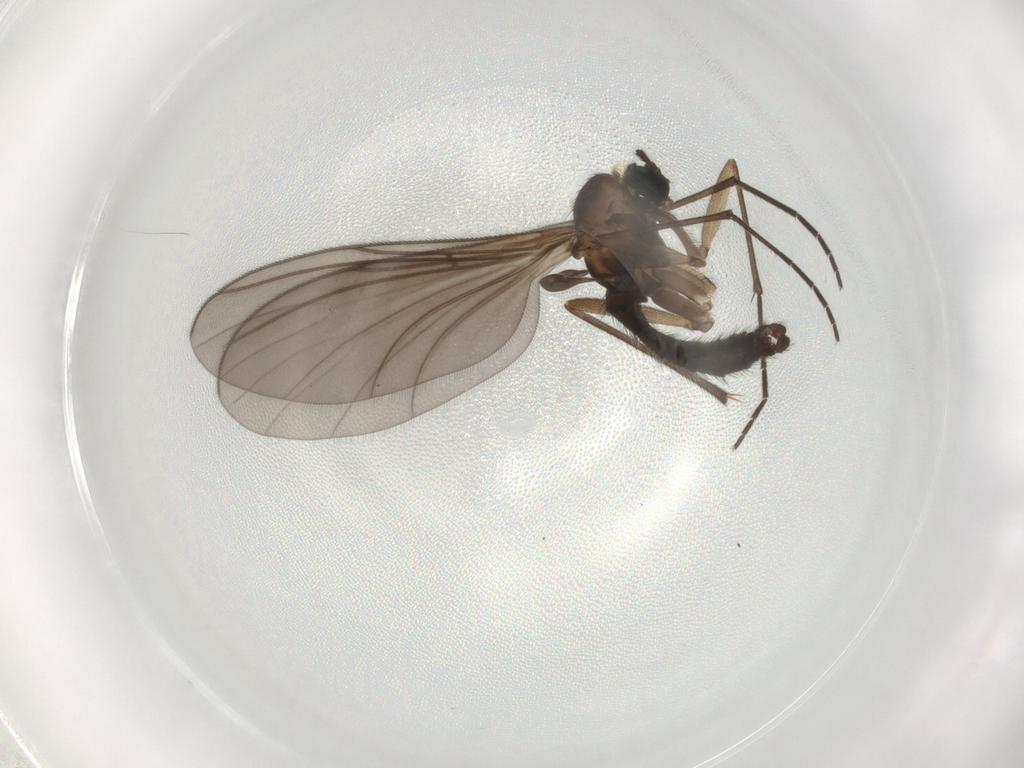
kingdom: Animalia
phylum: Arthropoda
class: Insecta
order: Diptera
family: Sciaridae
